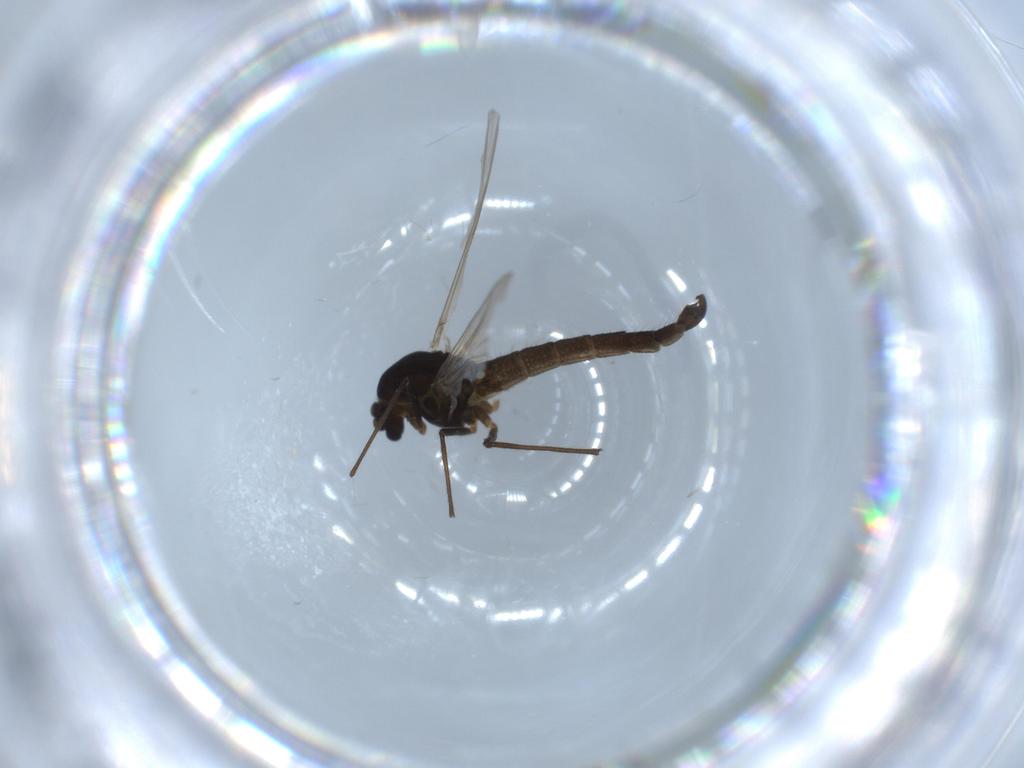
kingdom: Animalia
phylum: Arthropoda
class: Insecta
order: Diptera
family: Chironomidae
